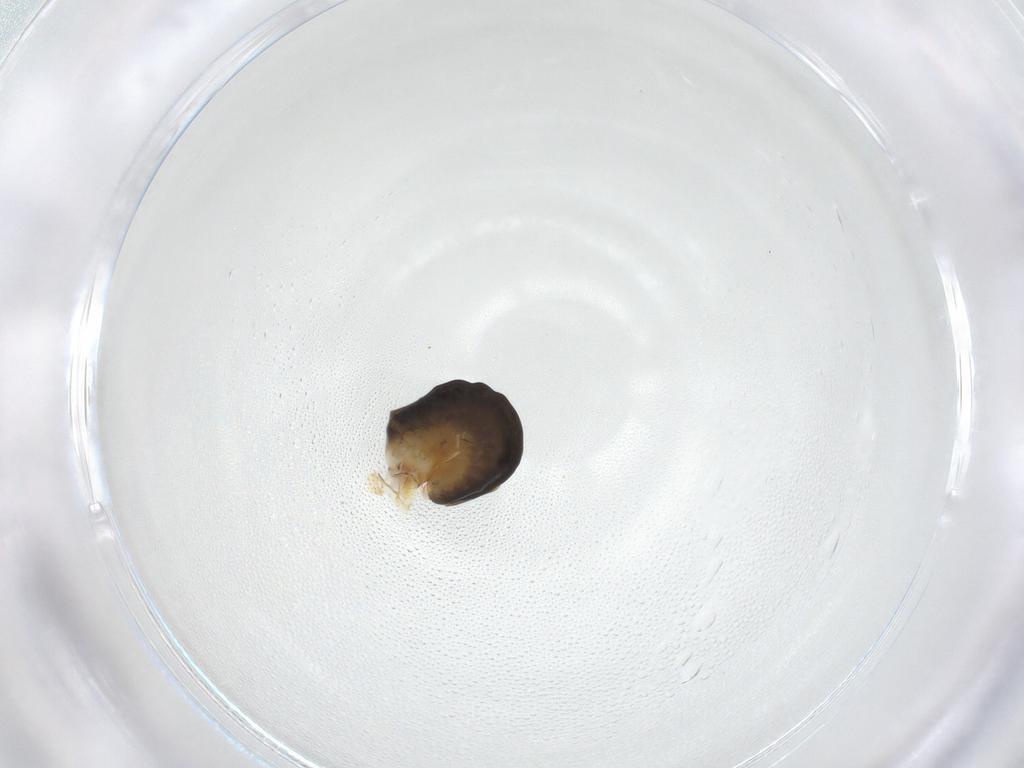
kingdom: Animalia
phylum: Arthropoda
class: Insecta
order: Hymenoptera
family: Dryinidae
